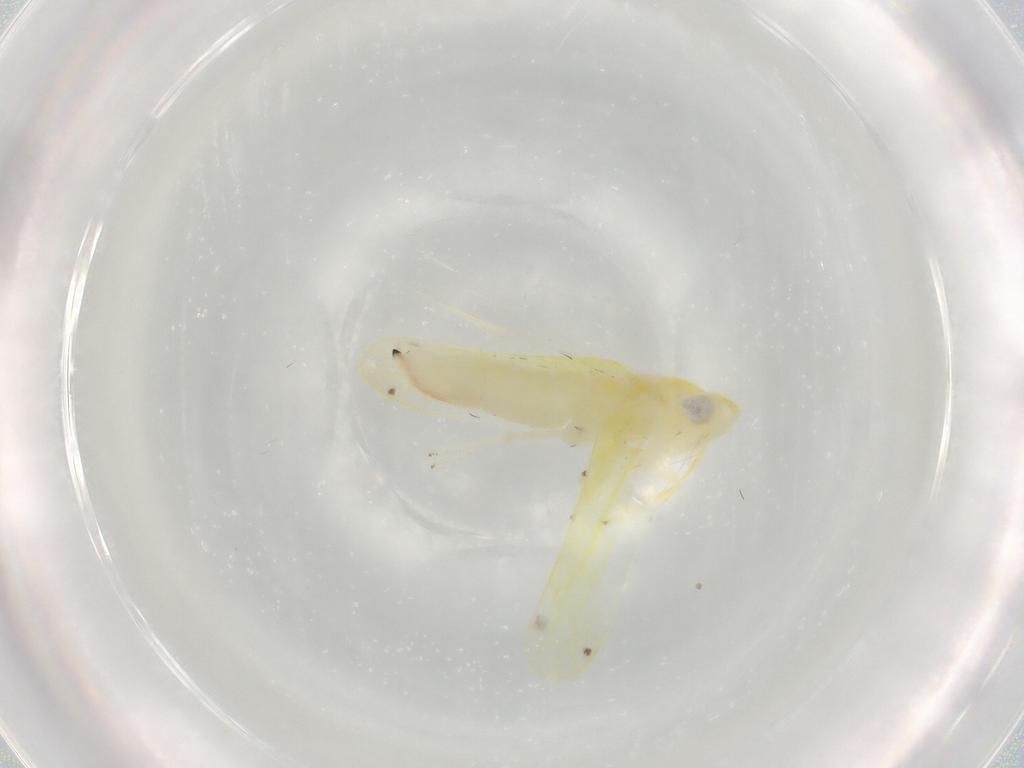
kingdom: Animalia
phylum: Arthropoda
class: Insecta
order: Hemiptera
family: Cicadellidae
